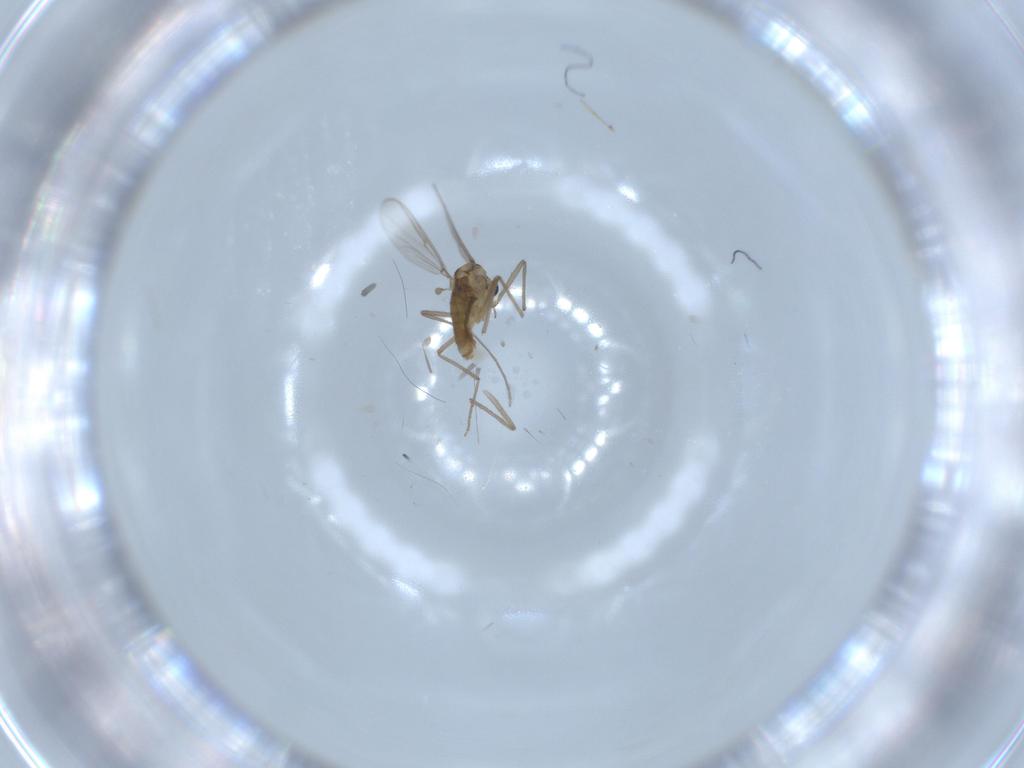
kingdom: Animalia
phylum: Arthropoda
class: Insecta
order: Diptera
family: Chironomidae
